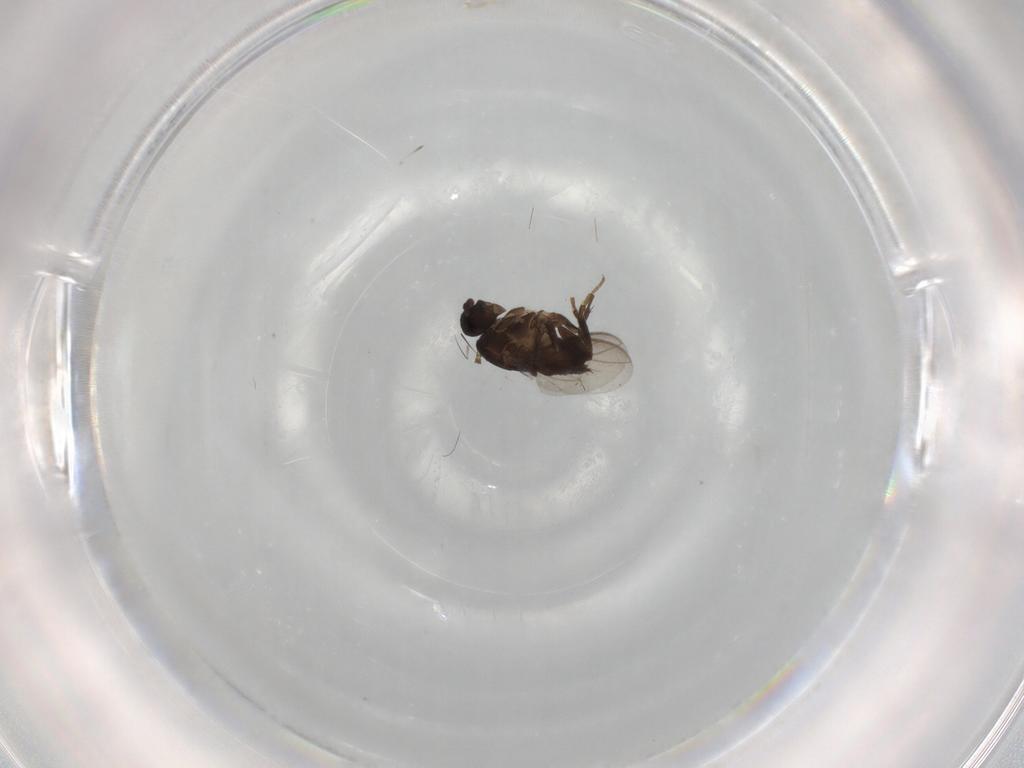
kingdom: Animalia
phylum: Arthropoda
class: Insecta
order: Diptera
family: Sphaeroceridae
